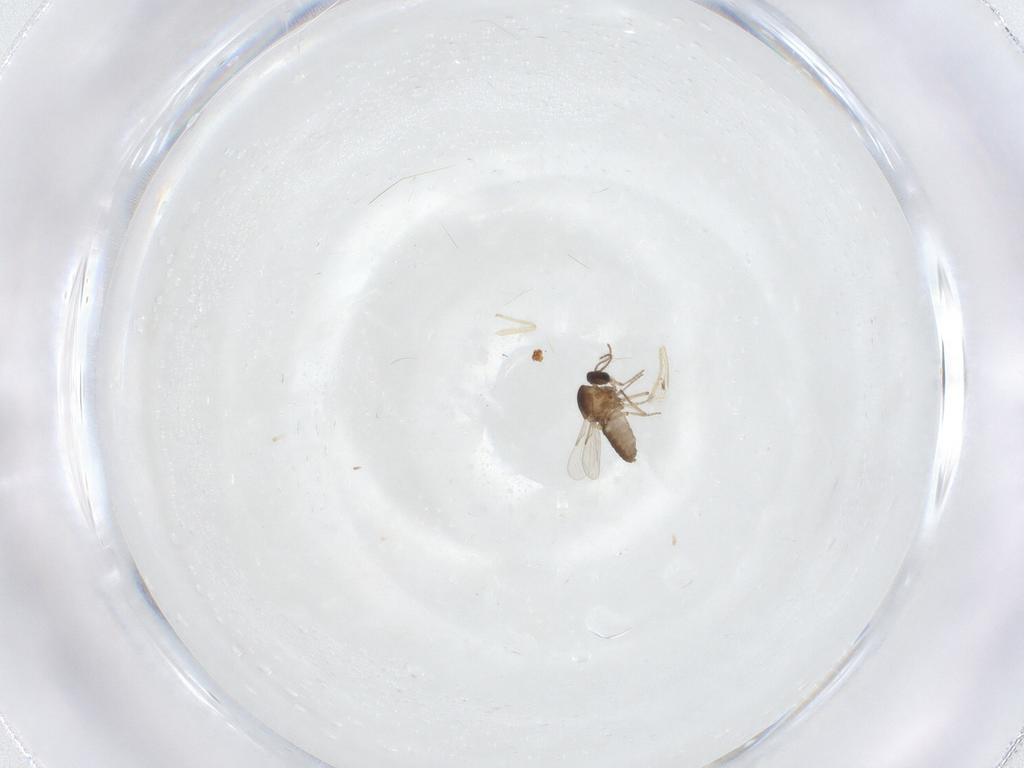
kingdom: Animalia
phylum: Arthropoda
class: Insecta
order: Diptera
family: Ceratopogonidae
